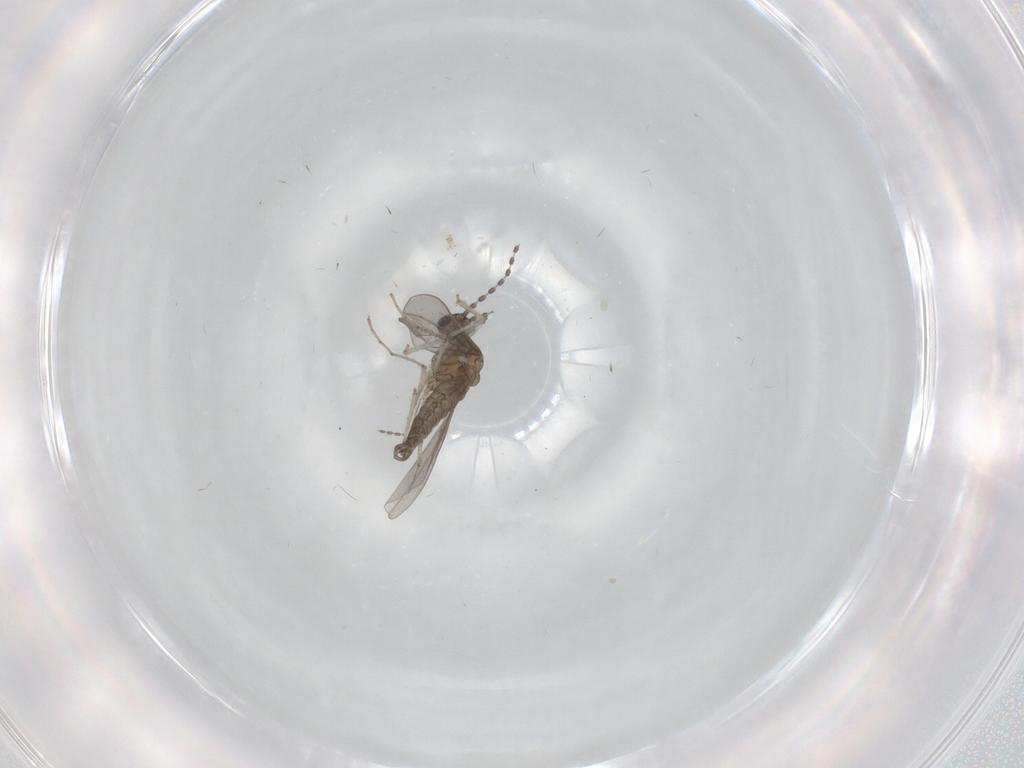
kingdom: Animalia
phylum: Arthropoda
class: Insecta
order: Diptera
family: Cecidomyiidae
